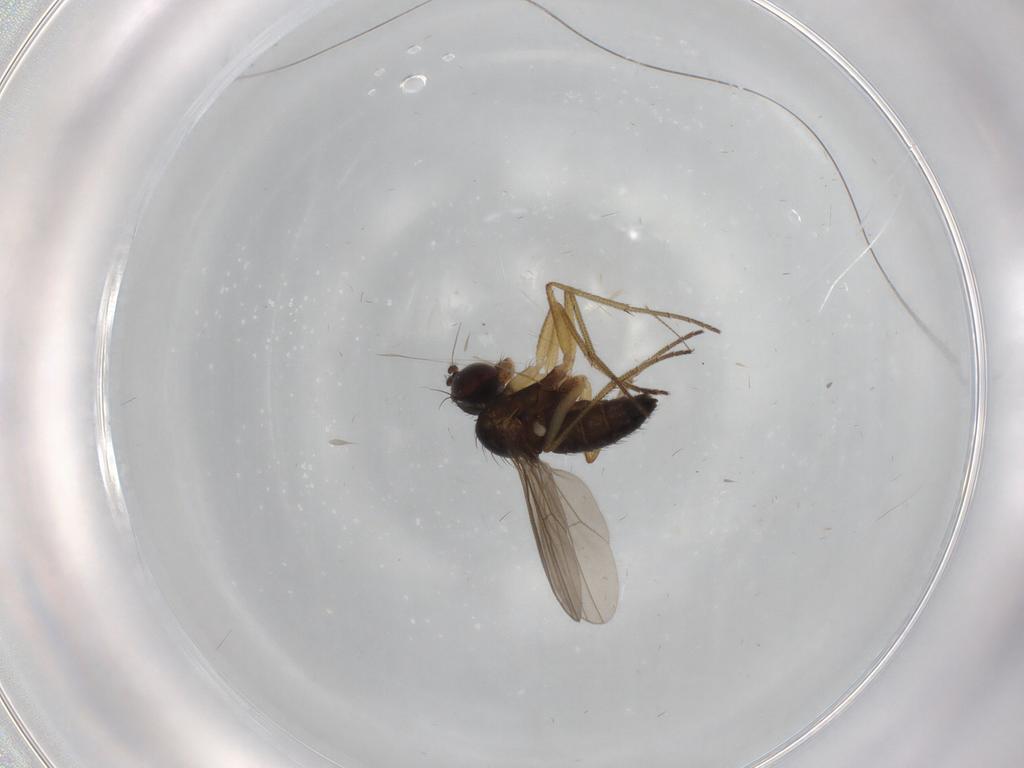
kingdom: Animalia
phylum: Arthropoda
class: Insecta
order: Diptera
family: Dolichopodidae
